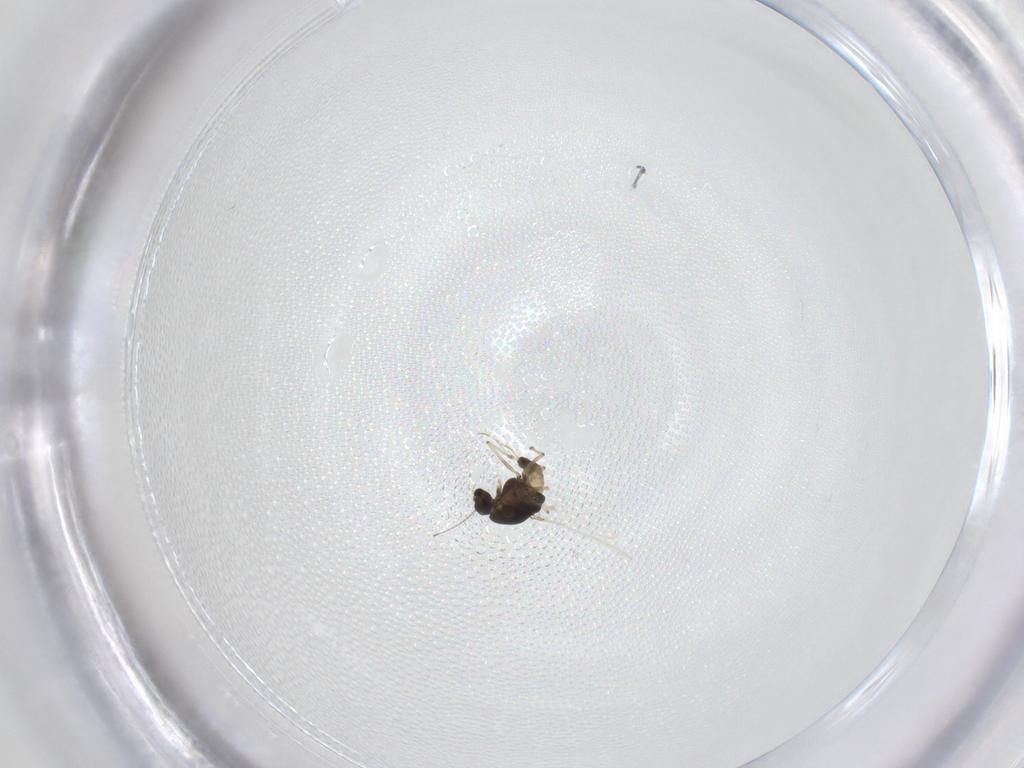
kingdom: Animalia
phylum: Arthropoda
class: Insecta
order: Diptera
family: Chironomidae
